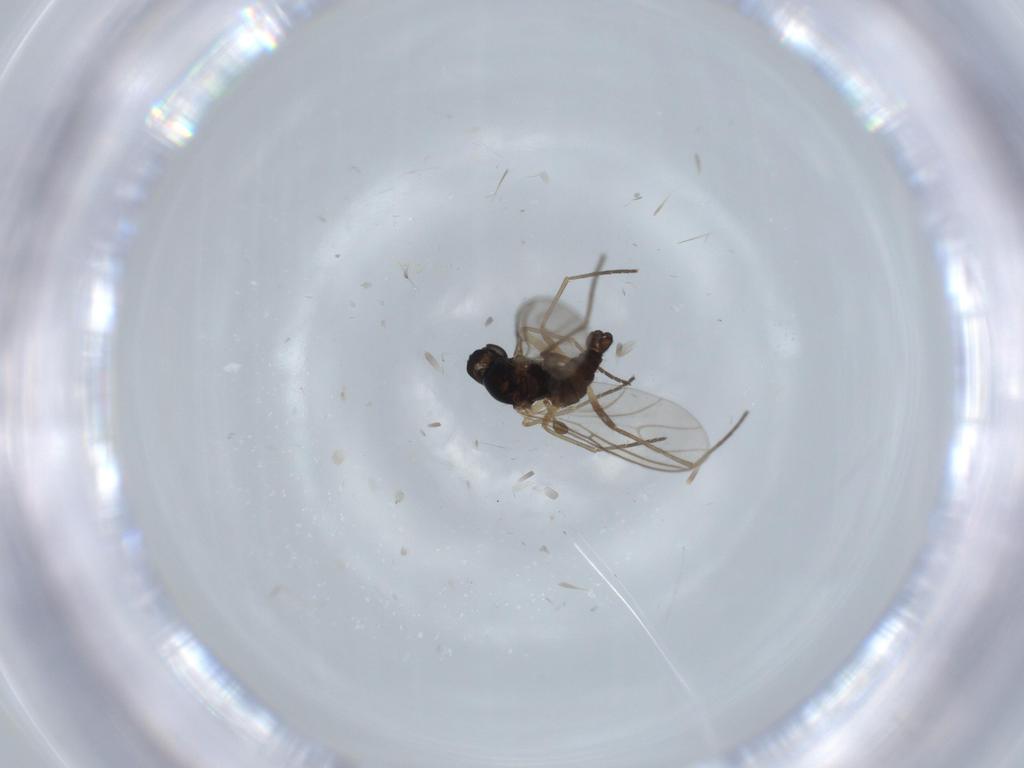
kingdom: Animalia
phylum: Arthropoda
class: Insecta
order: Diptera
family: Sciaridae
